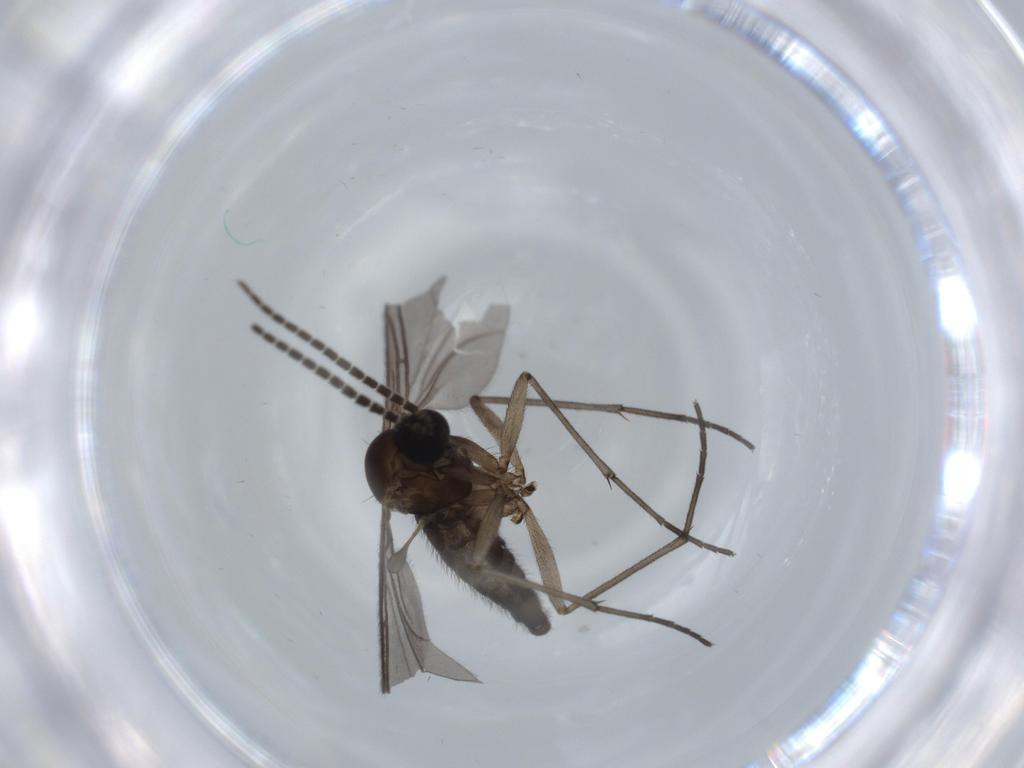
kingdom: Animalia
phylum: Arthropoda
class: Insecta
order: Diptera
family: Sciaridae
